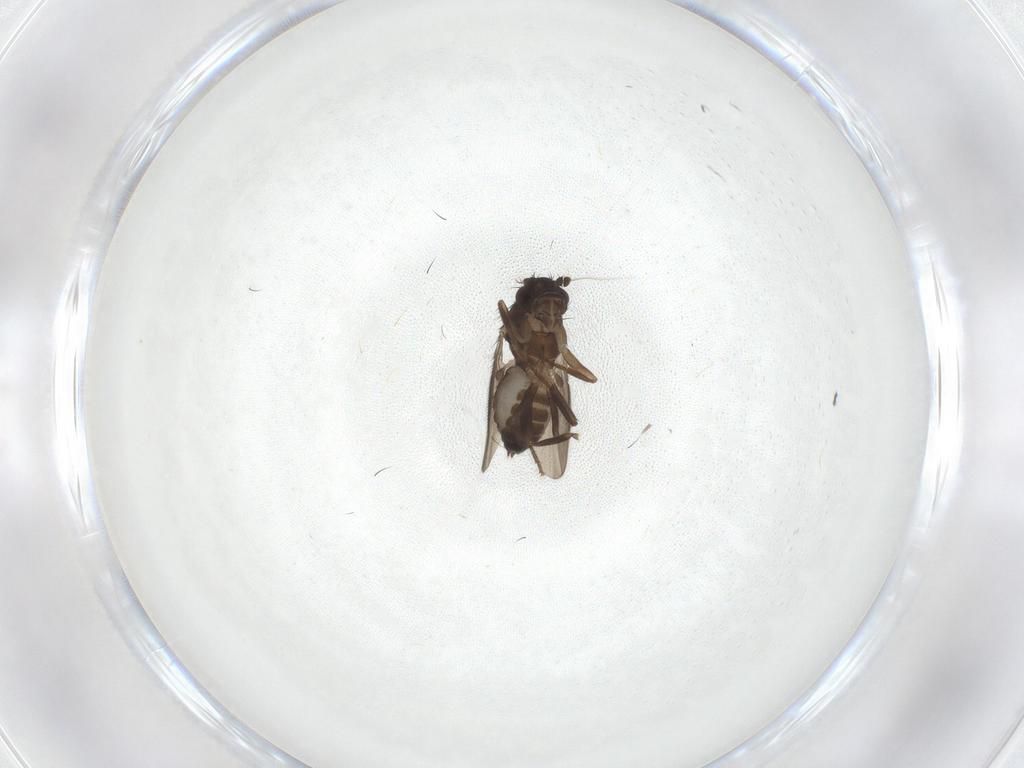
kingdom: Animalia
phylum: Arthropoda
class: Insecta
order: Diptera
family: Sphaeroceridae
